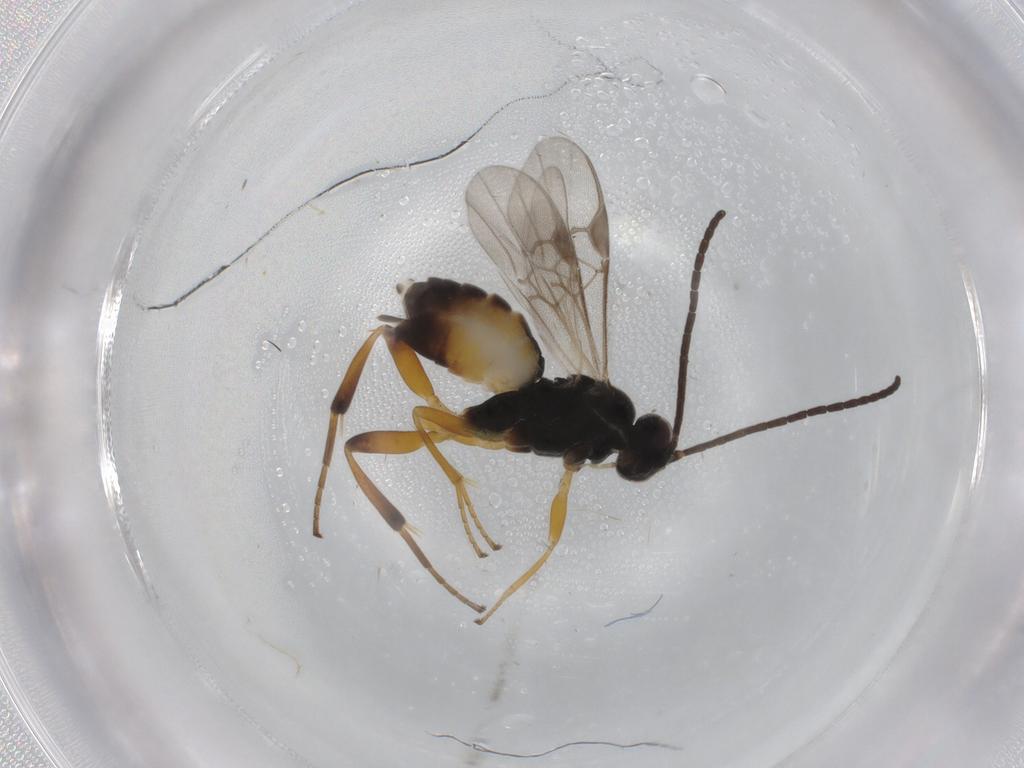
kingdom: Animalia
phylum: Arthropoda
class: Insecta
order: Hymenoptera
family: Braconidae
